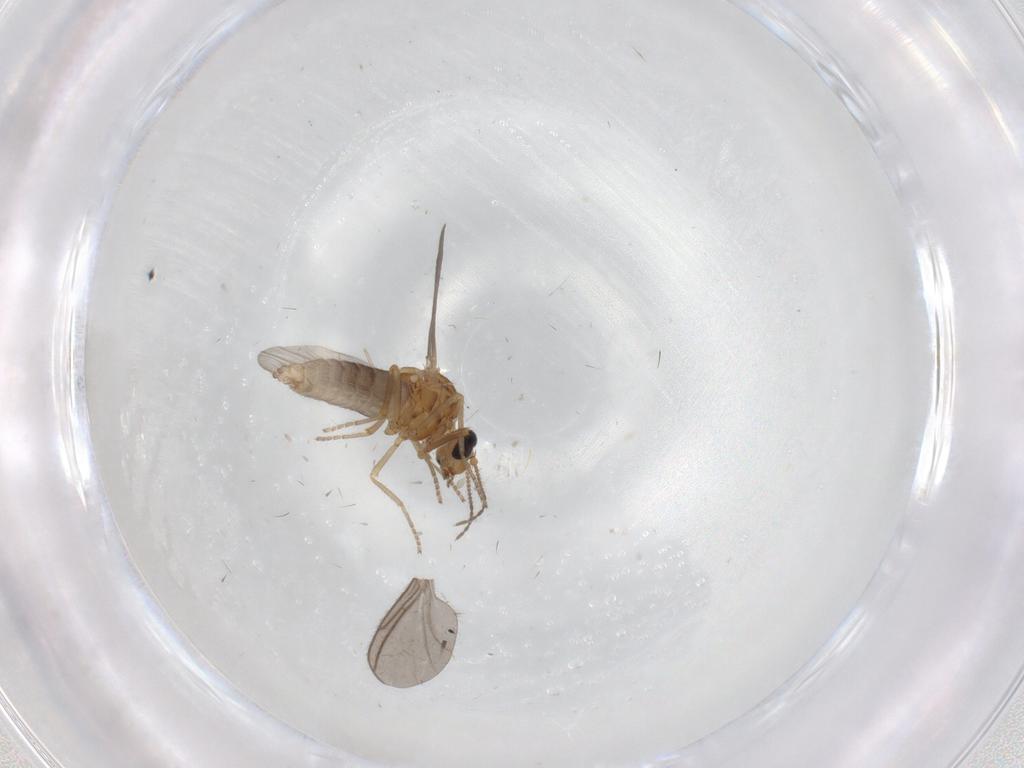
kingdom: Animalia
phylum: Arthropoda
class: Insecta
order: Diptera
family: Ceratopogonidae
